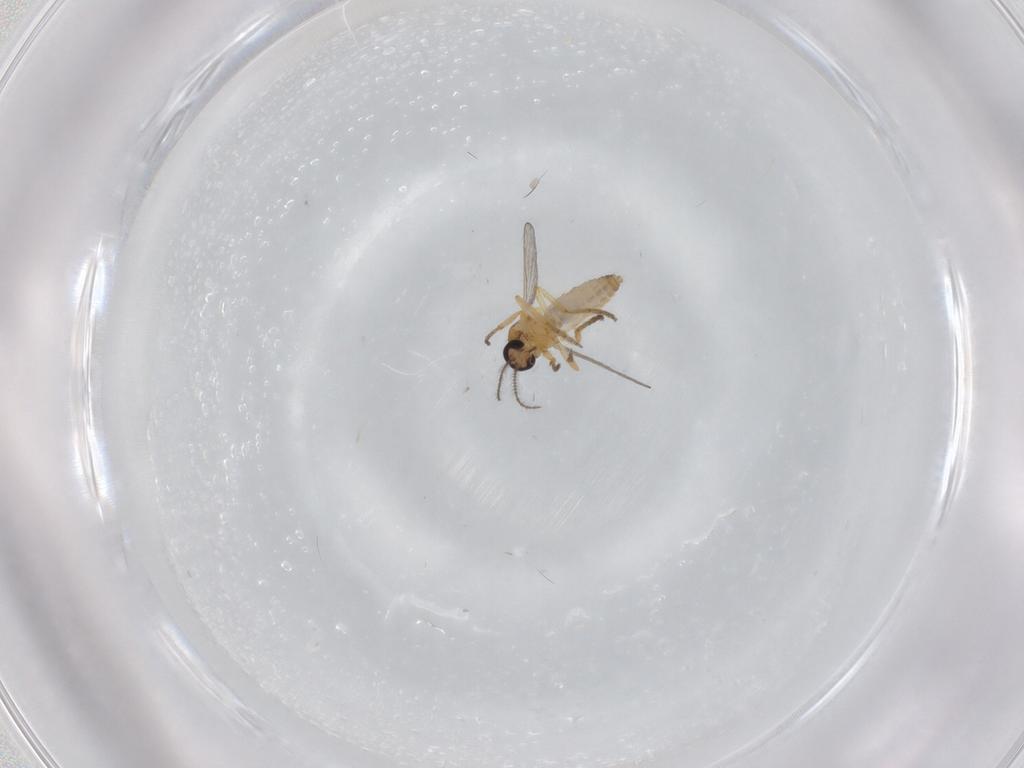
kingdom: Animalia
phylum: Arthropoda
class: Insecta
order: Diptera
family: Ceratopogonidae
